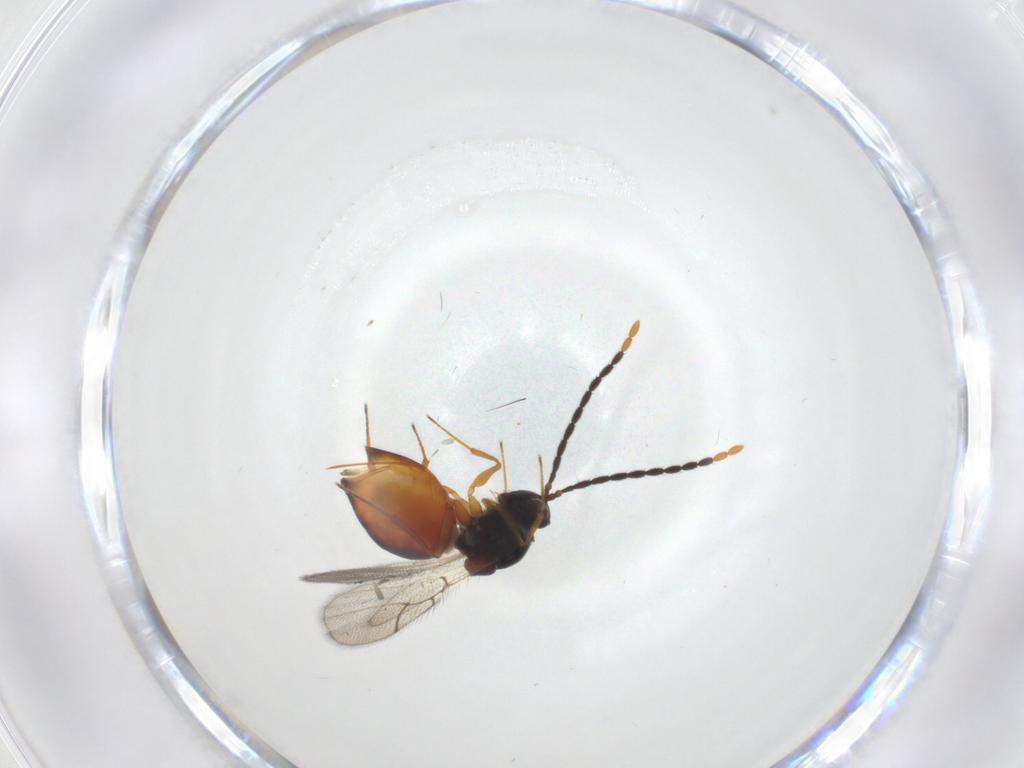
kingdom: Animalia
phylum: Arthropoda
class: Insecta
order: Hymenoptera
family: Figitidae
